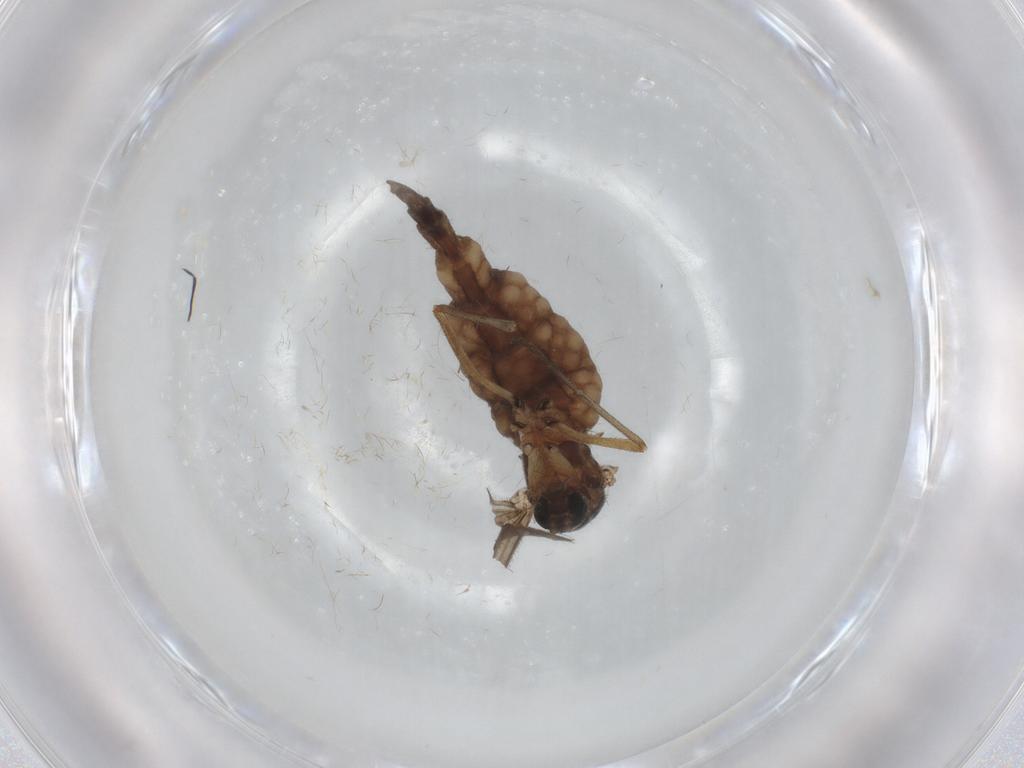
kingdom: Animalia
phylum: Arthropoda
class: Insecta
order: Diptera
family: Sciaridae
